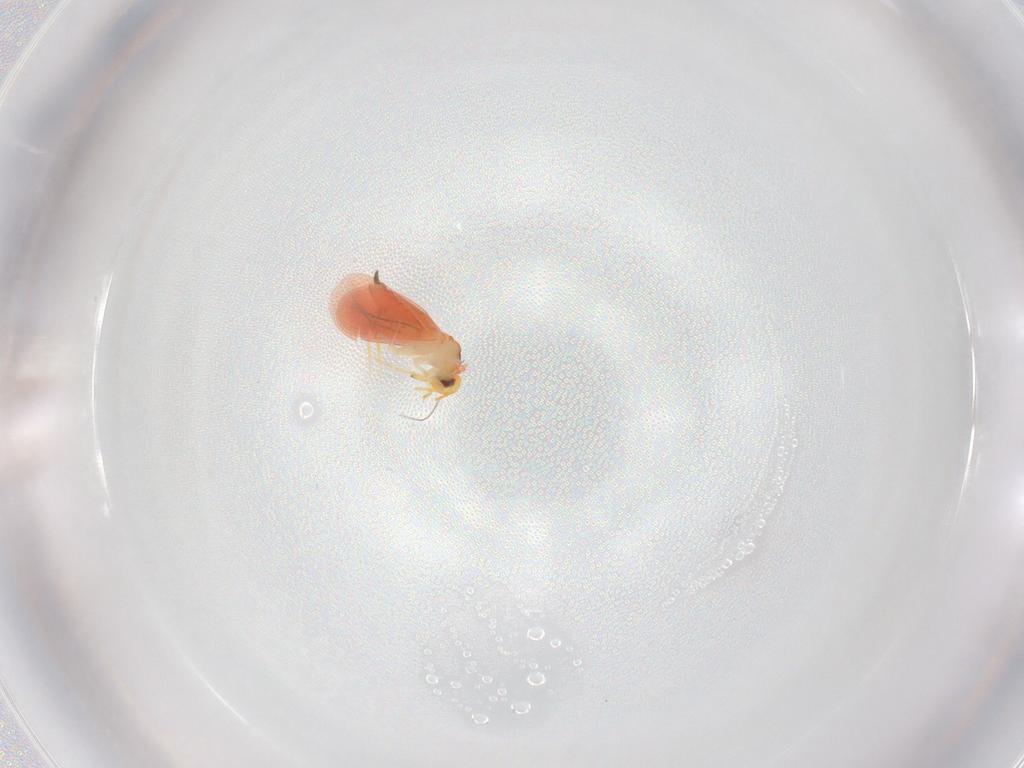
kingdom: Animalia
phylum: Arthropoda
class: Insecta
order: Hemiptera
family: Aleyrodidae
